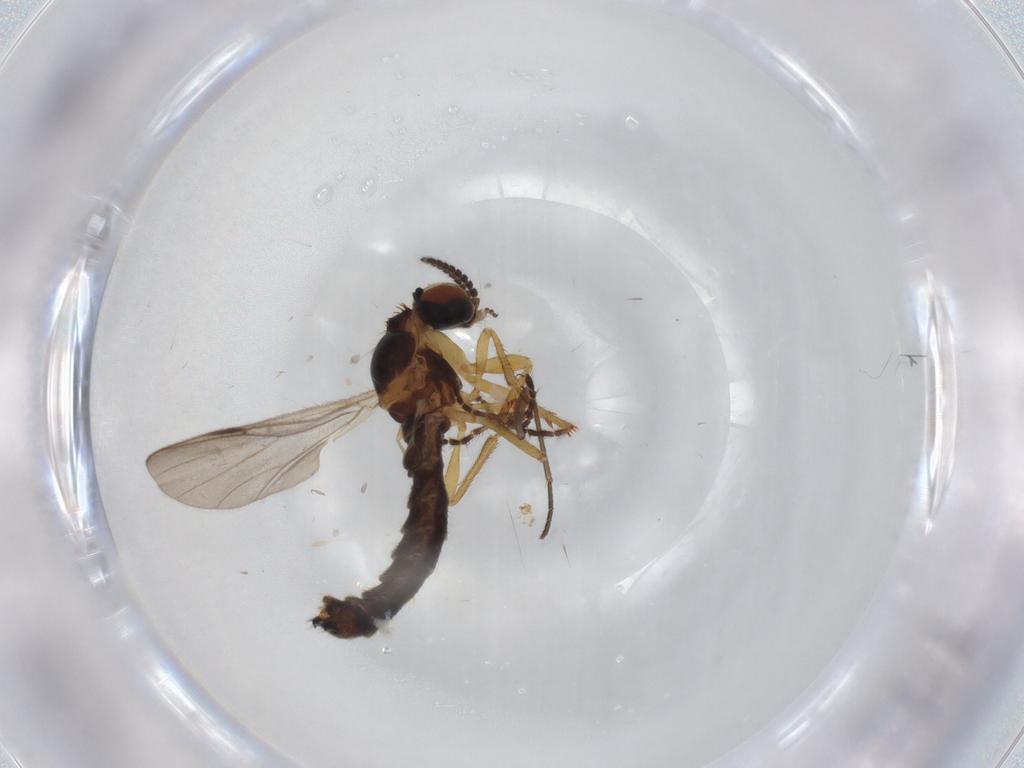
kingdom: Animalia
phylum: Arthropoda
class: Insecta
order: Diptera
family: Bibionidae
